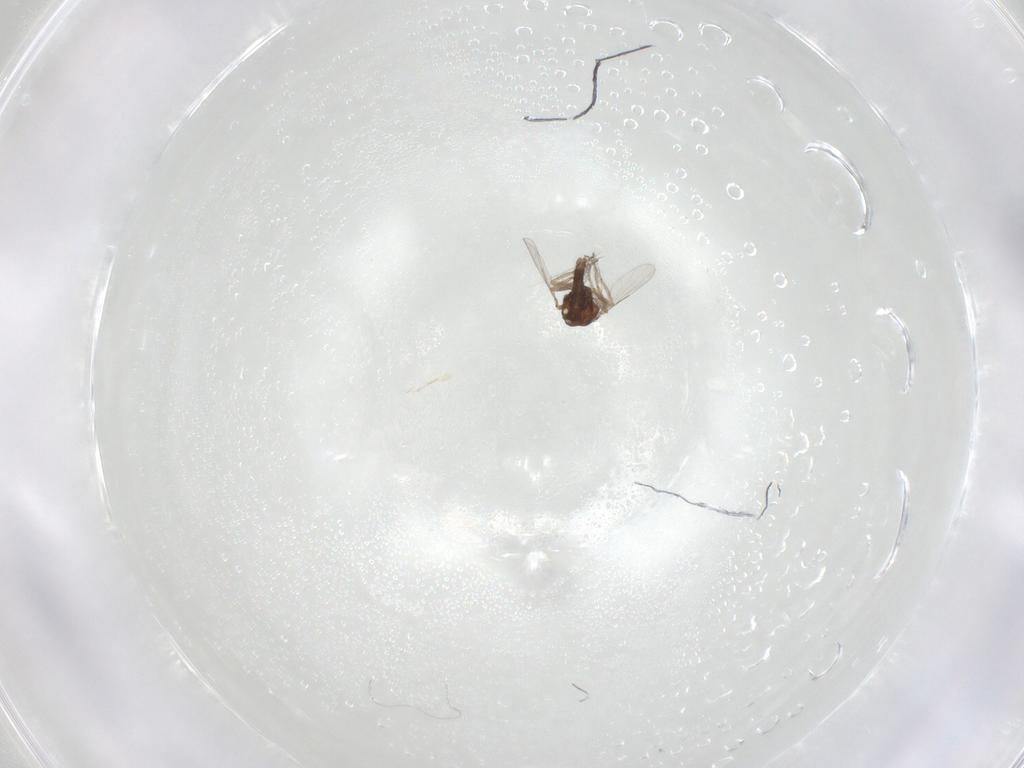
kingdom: Animalia
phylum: Arthropoda
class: Insecta
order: Diptera
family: Ceratopogonidae
